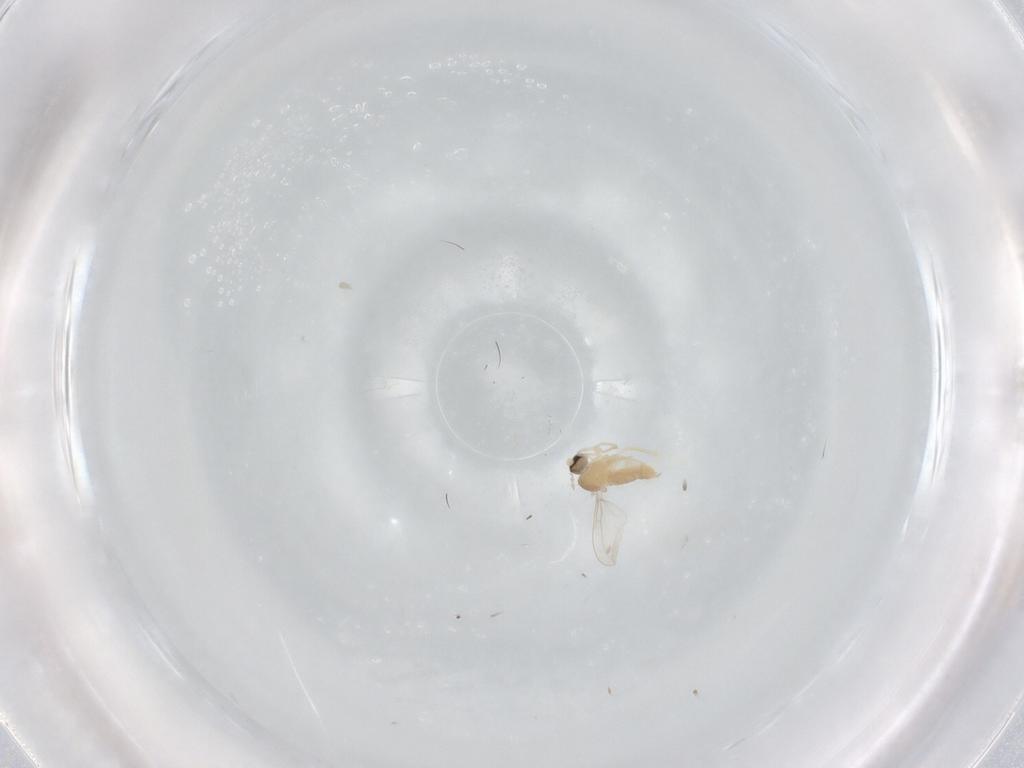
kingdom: Animalia
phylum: Arthropoda
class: Insecta
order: Diptera
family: Cecidomyiidae
